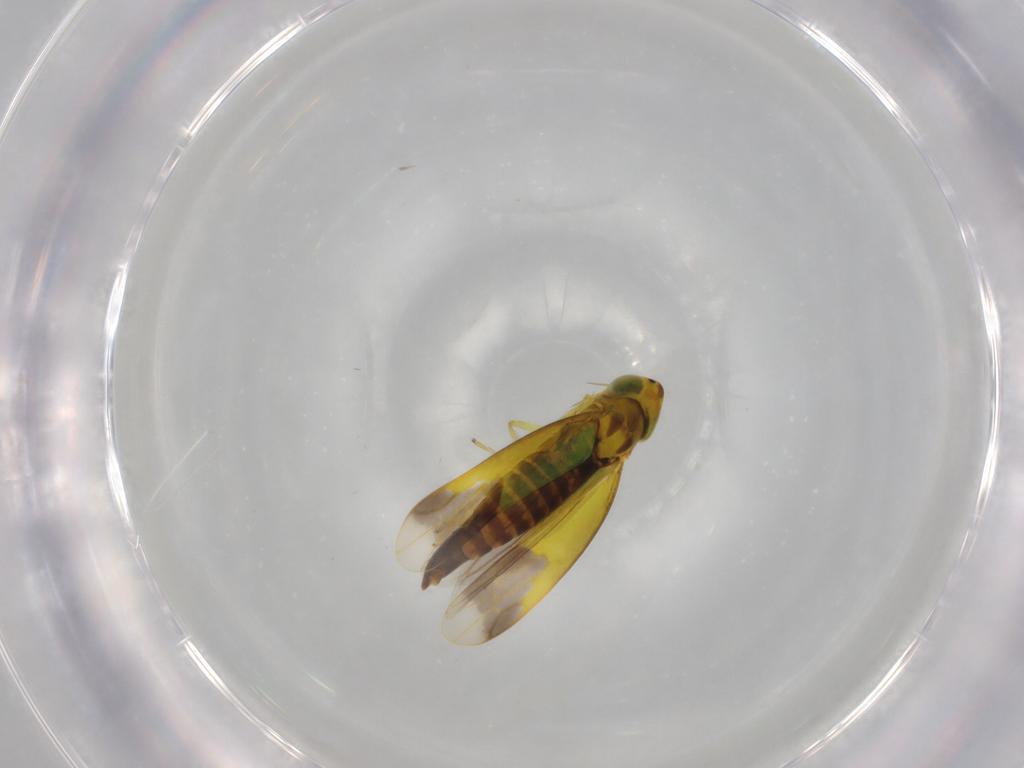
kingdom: Animalia
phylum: Arthropoda
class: Insecta
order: Hemiptera
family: Cicadellidae
